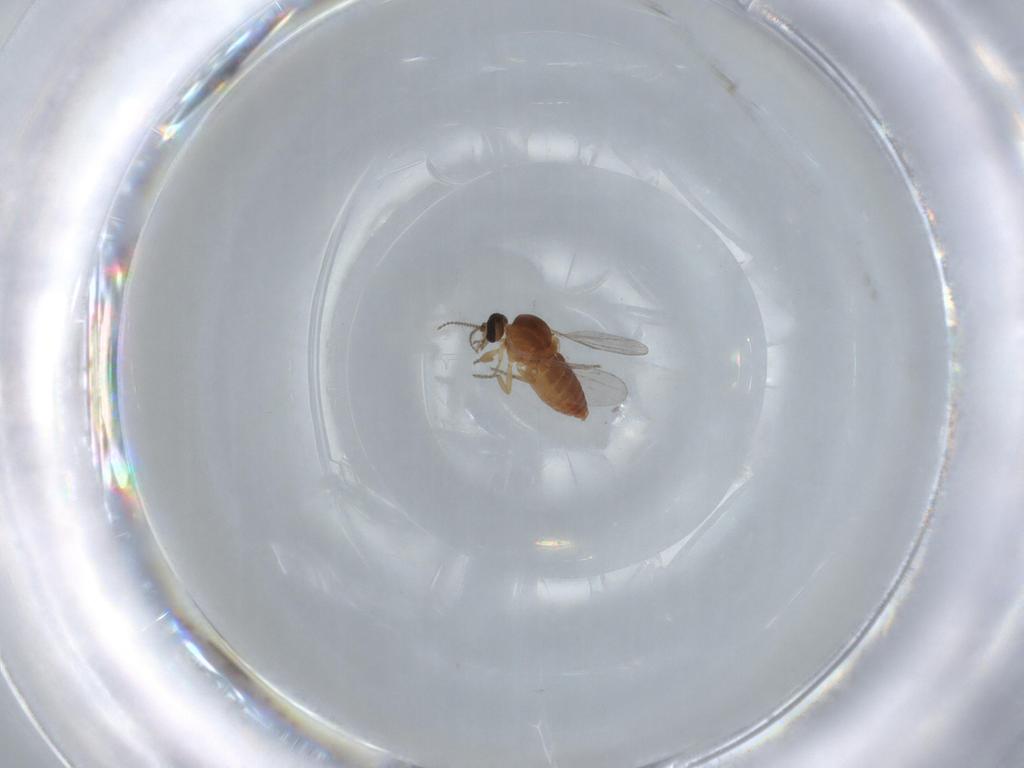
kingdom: Animalia
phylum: Arthropoda
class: Insecta
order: Diptera
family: Ceratopogonidae
